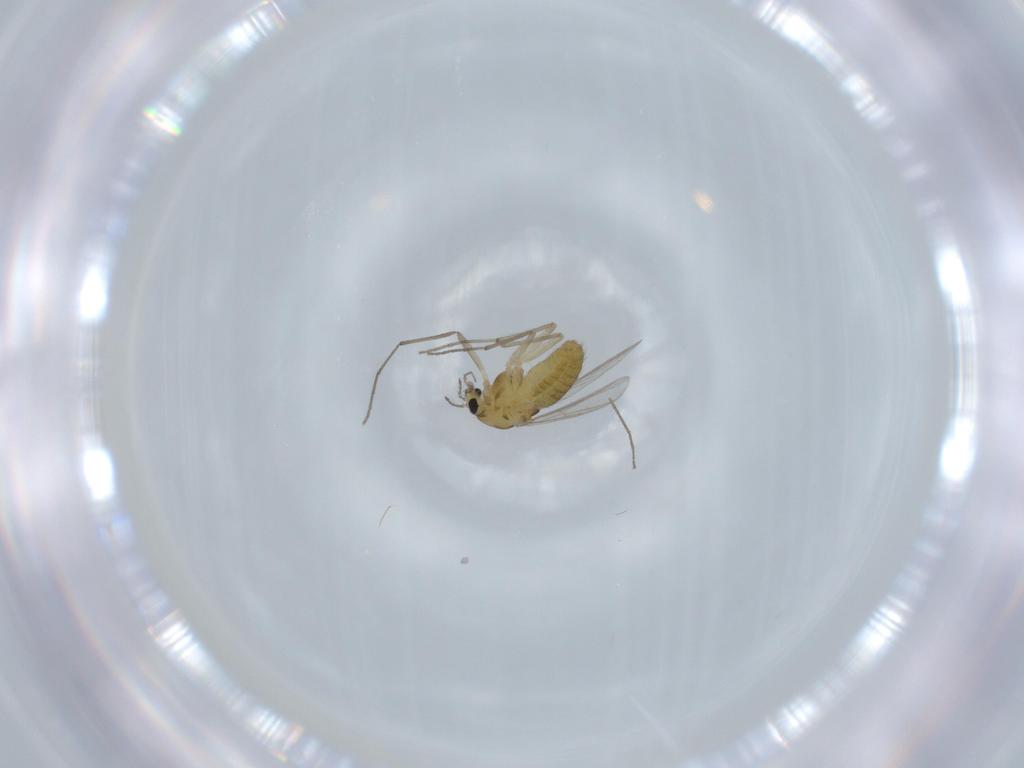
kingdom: Animalia
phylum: Arthropoda
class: Insecta
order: Diptera
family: Chironomidae
